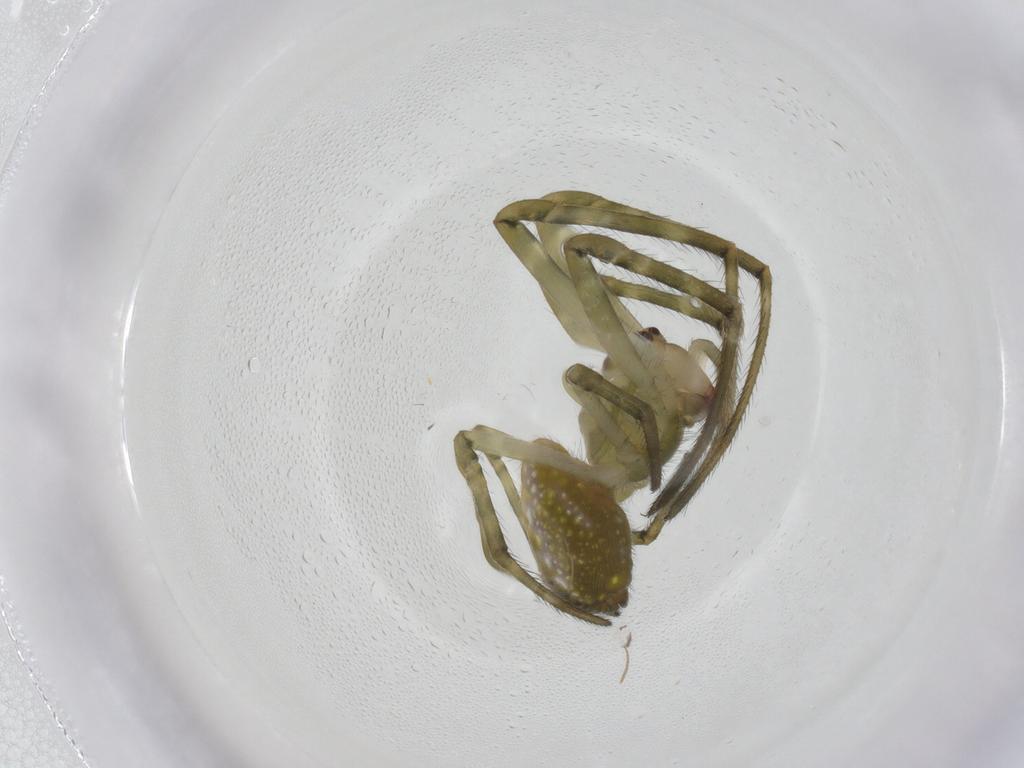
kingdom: Animalia
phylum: Arthropoda
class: Arachnida
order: Araneae
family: Tetragnathidae
